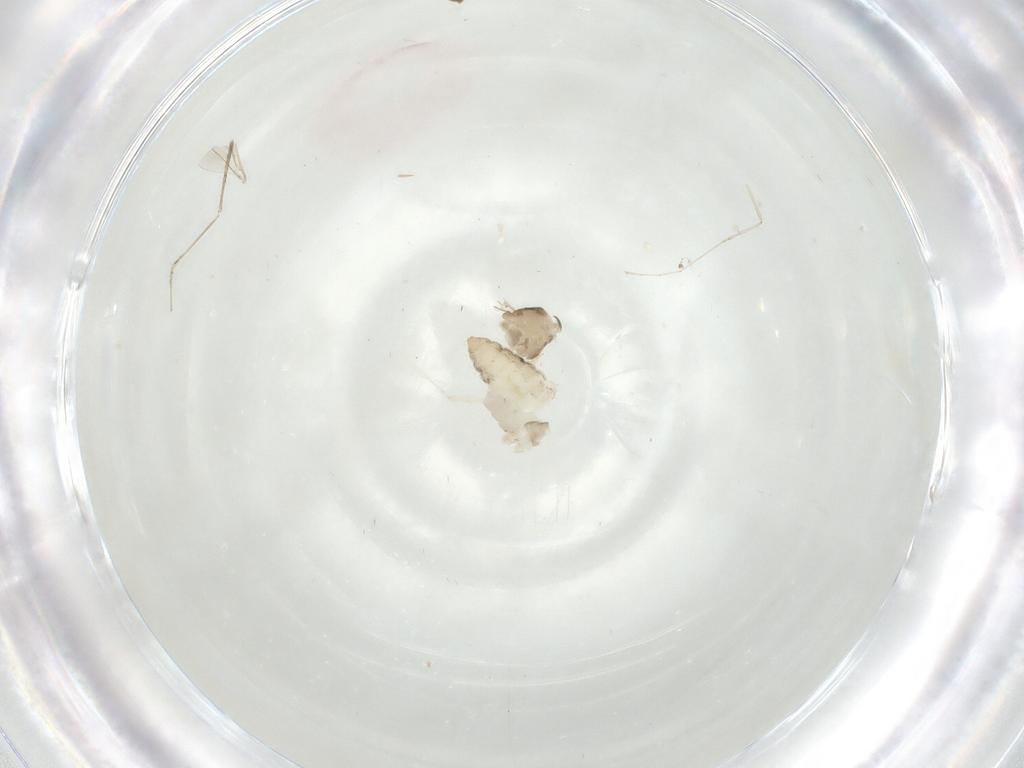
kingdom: Animalia
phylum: Arthropoda
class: Insecta
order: Diptera
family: Cecidomyiidae
